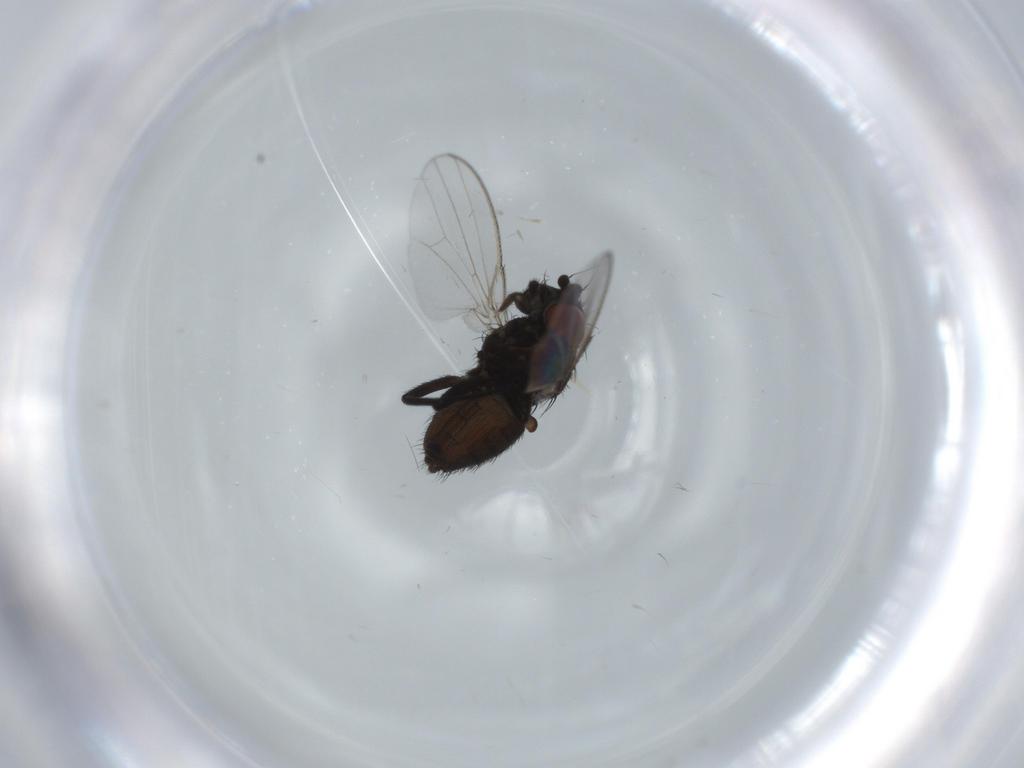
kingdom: Animalia
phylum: Arthropoda
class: Insecta
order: Diptera
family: Milichiidae
